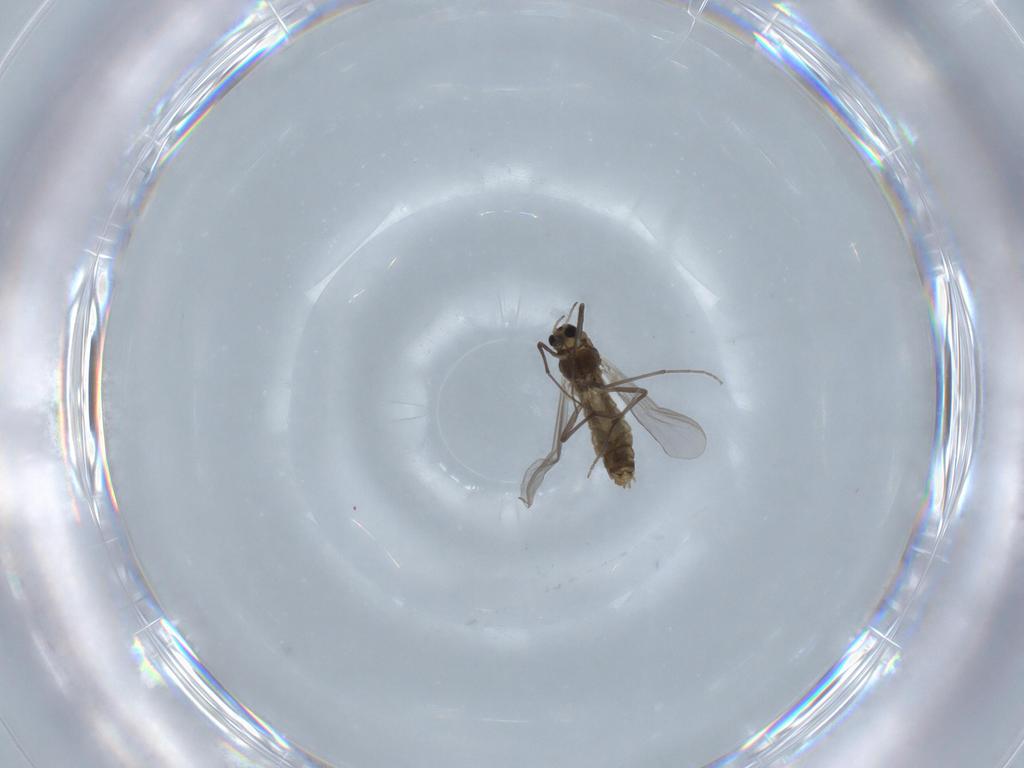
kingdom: Animalia
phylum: Arthropoda
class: Insecta
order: Diptera
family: Chironomidae
